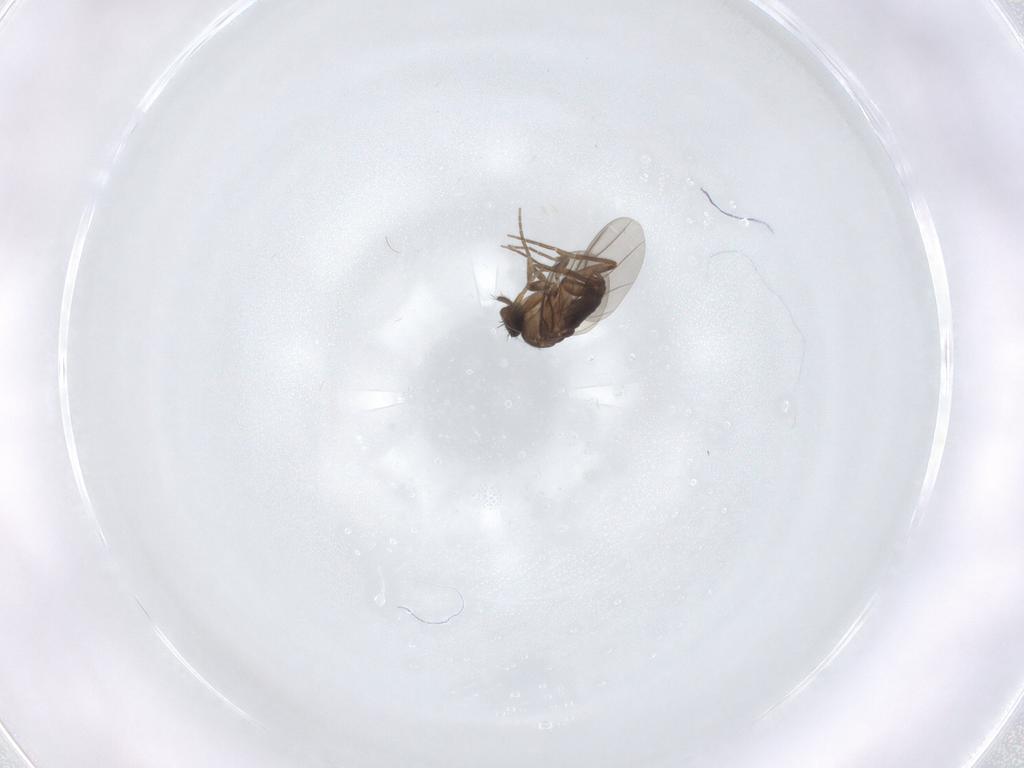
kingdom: Animalia
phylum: Arthropoda
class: Insecta
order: Diptera
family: Phoridae
